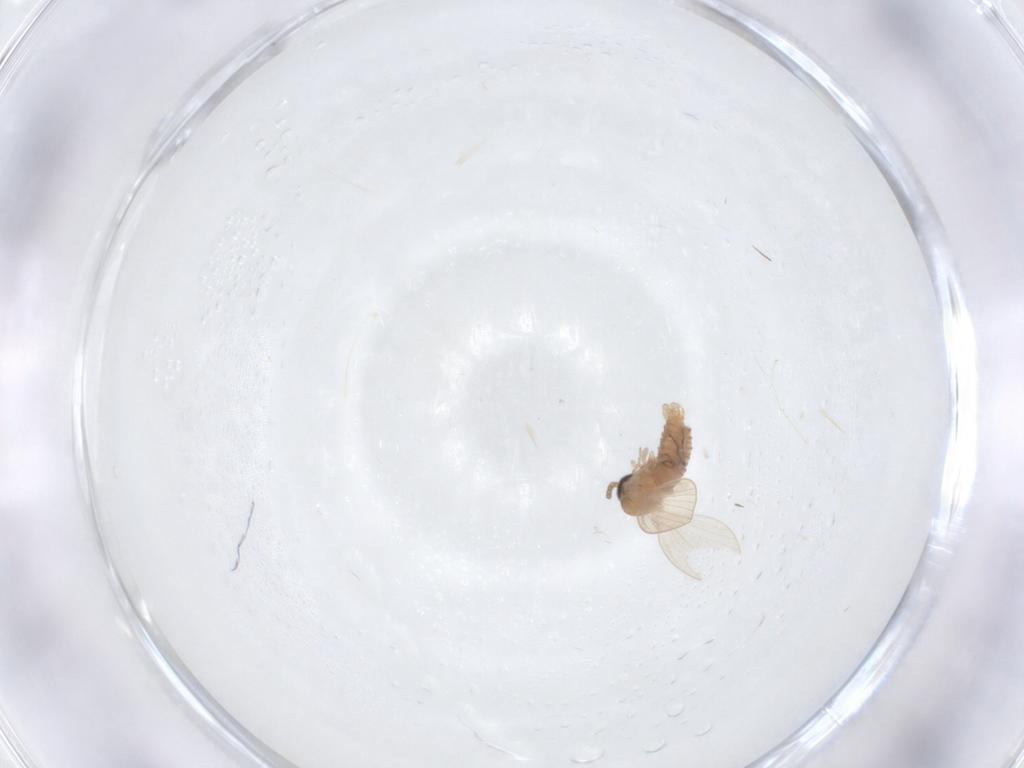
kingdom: Animalia
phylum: Arthropoda
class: Insecta
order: Diptera
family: Psychodidae
